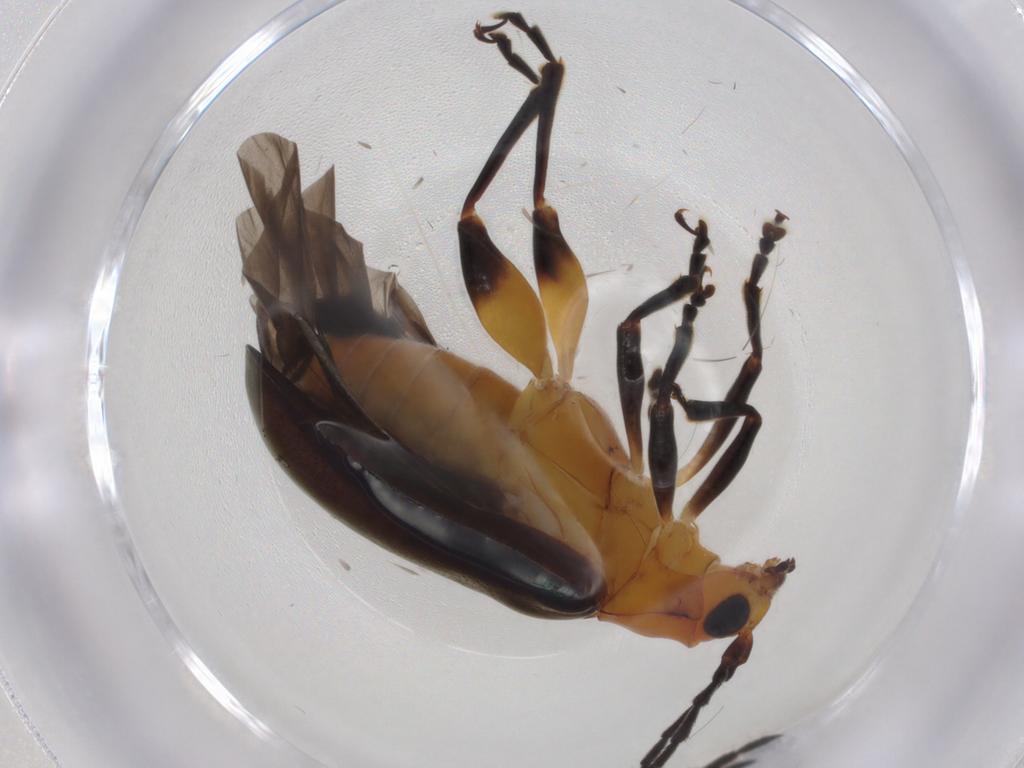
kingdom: Animalia
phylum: Arthropoda
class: Insecta
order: Coleoptera
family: Chrysomelidae
